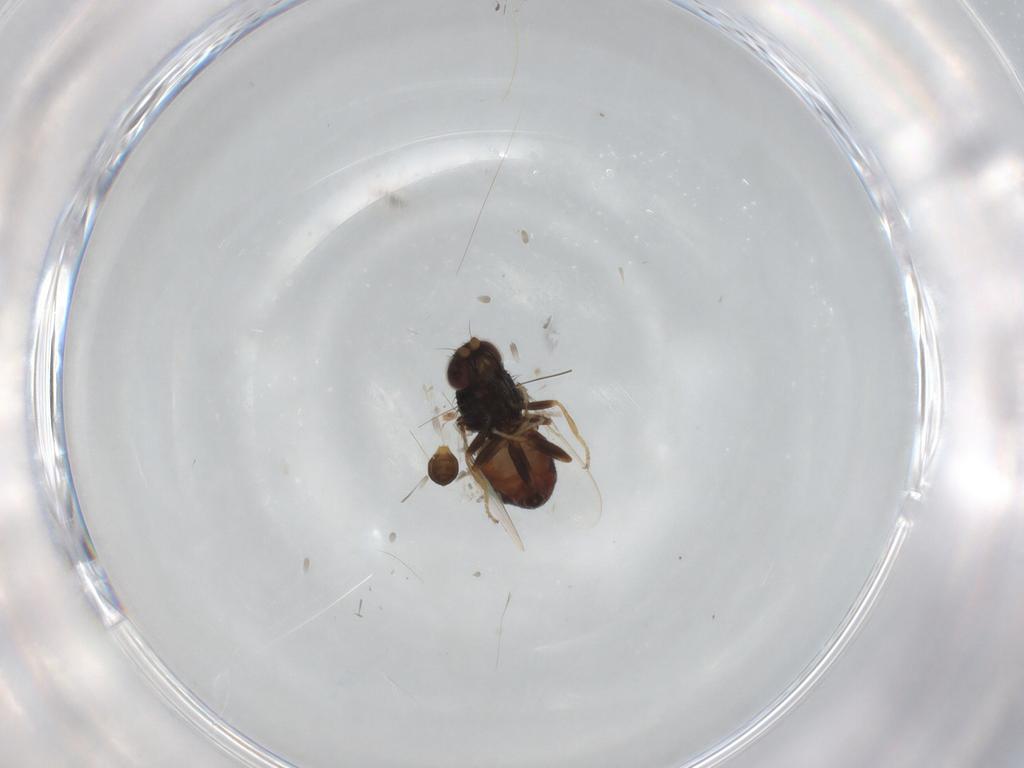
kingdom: Animalia
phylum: Arthropoda
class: Insecta
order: Diptera
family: Chloropidae
